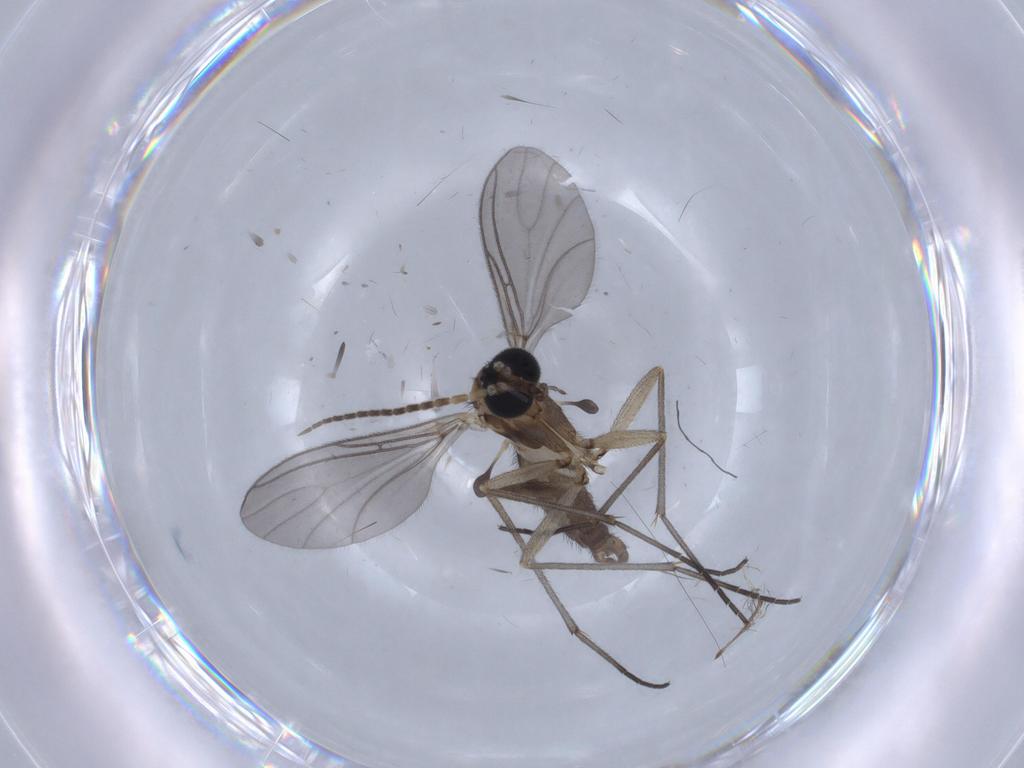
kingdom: Animalia
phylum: Arthropoda
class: Insecta
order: Diptera
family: Sciaridae
